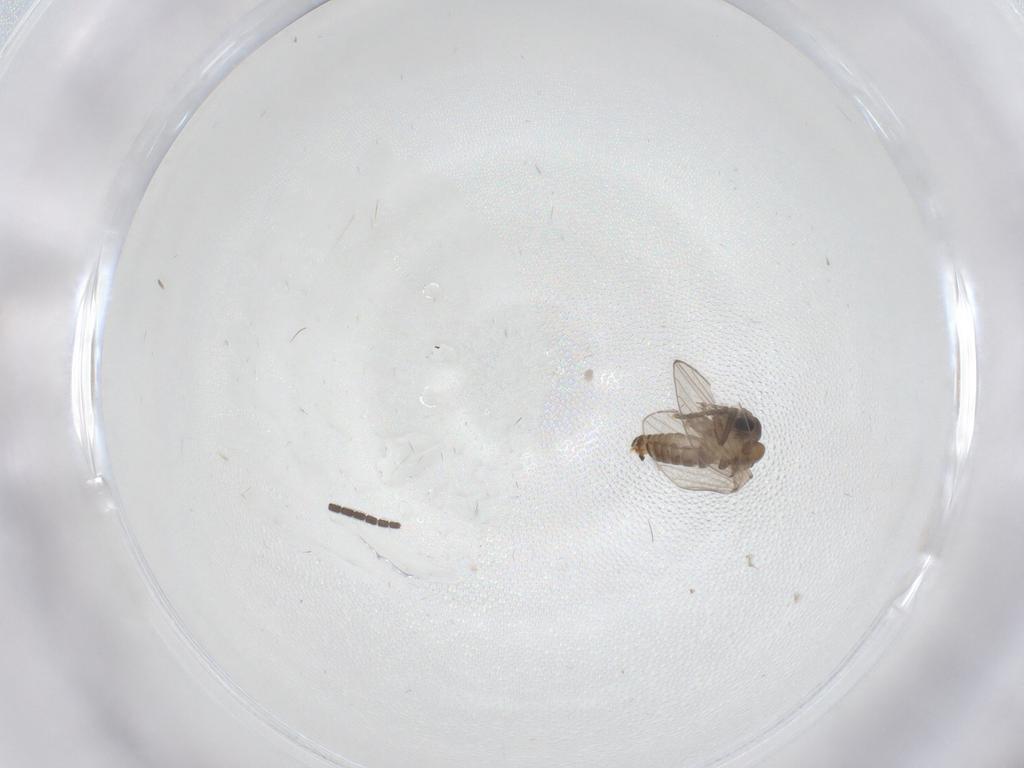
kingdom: Animalia
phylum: Arthropoda
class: Insecta
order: Diptera
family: Sciaridae
